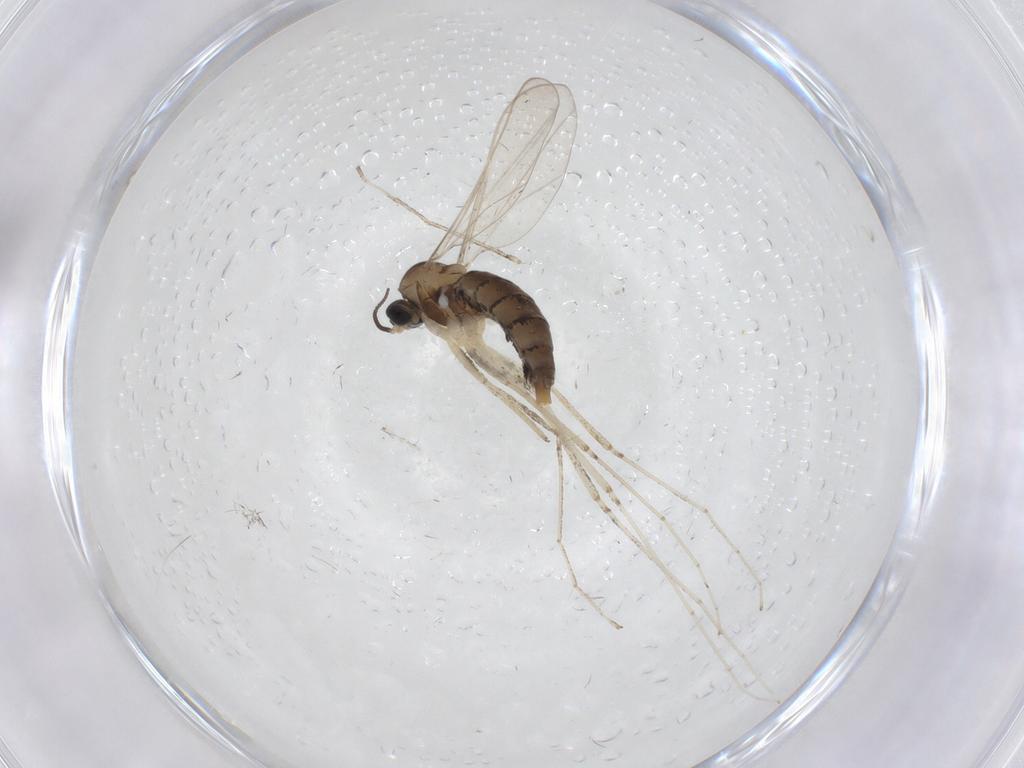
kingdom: Animalia
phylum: Arthropoda
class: Insecta
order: Diptera
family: Cecidomyiidae
